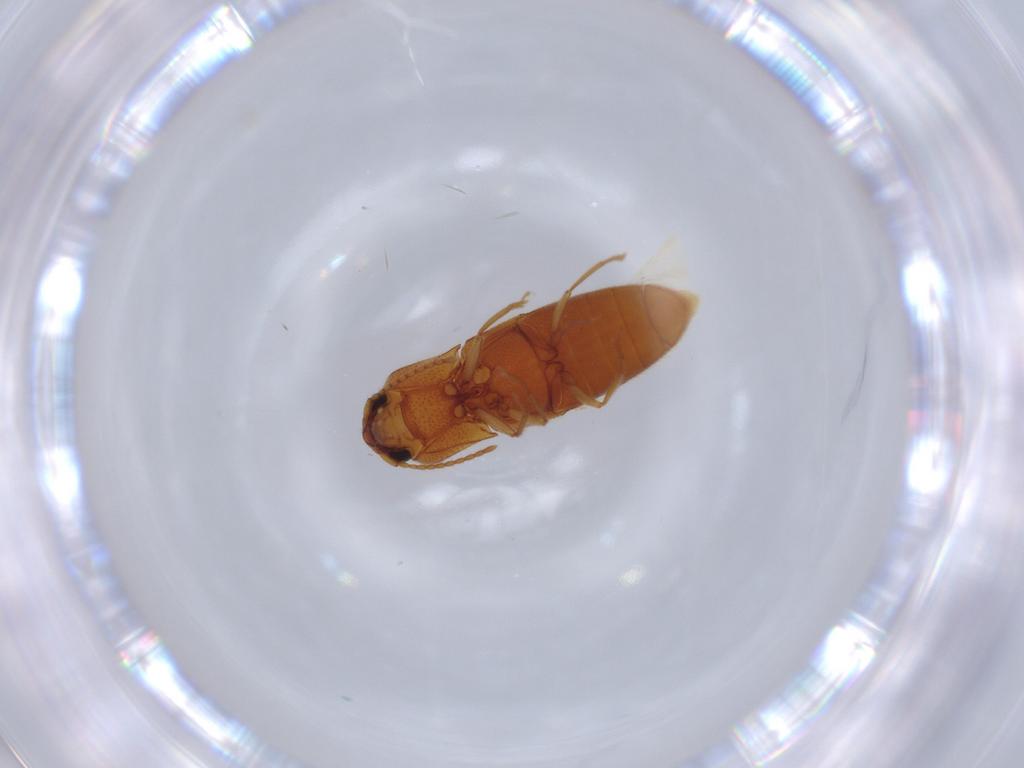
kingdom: Animalia
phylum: Arthropoda
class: Insecta
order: Coleoptera
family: Elateridae
